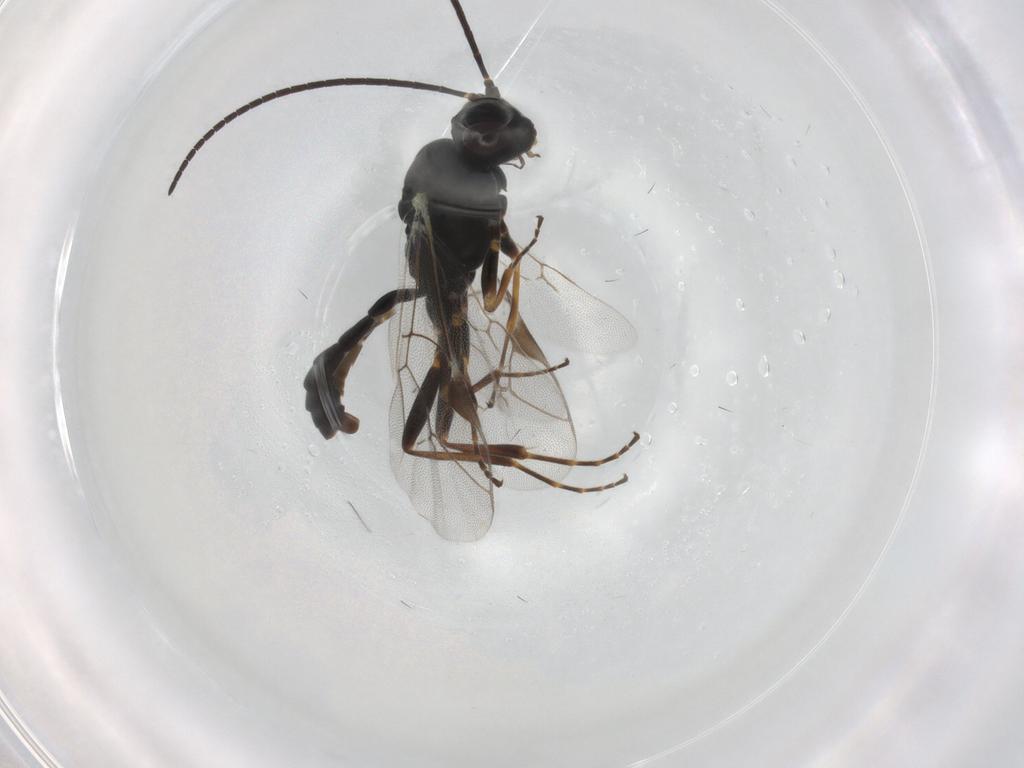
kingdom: Animalia
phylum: Arthropoda
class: Insecta
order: Hymenoptera
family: Ichneumonidae
